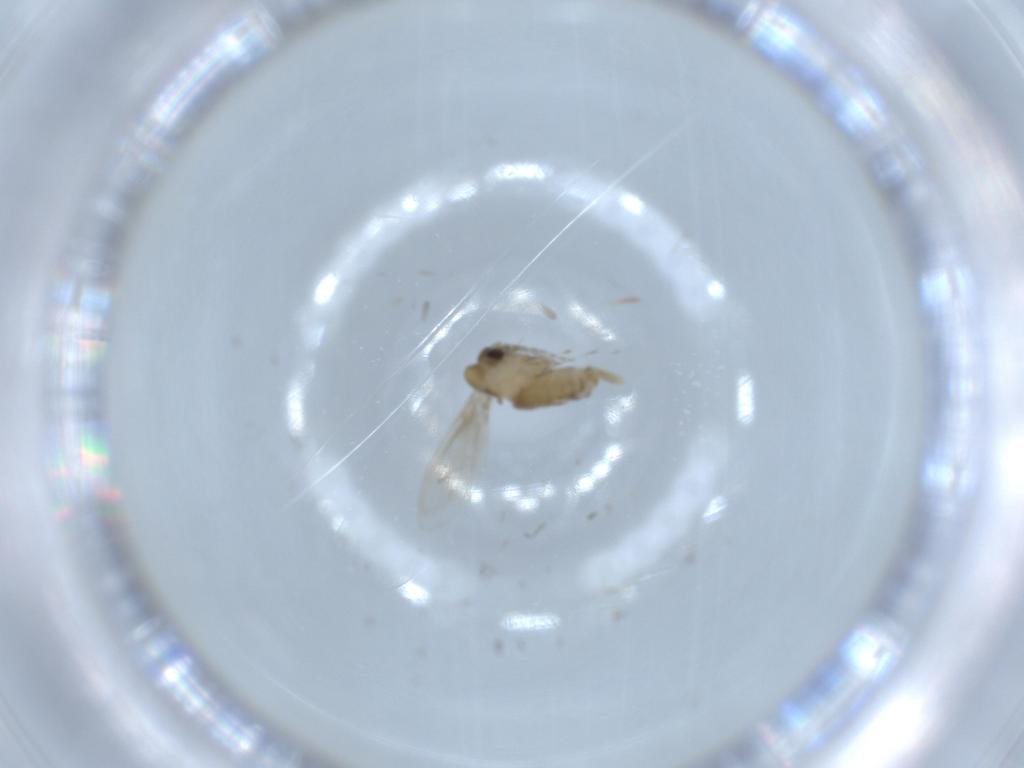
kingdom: Animalia
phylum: Arthropoda
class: Insecta
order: Diptera
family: Psychodidae
